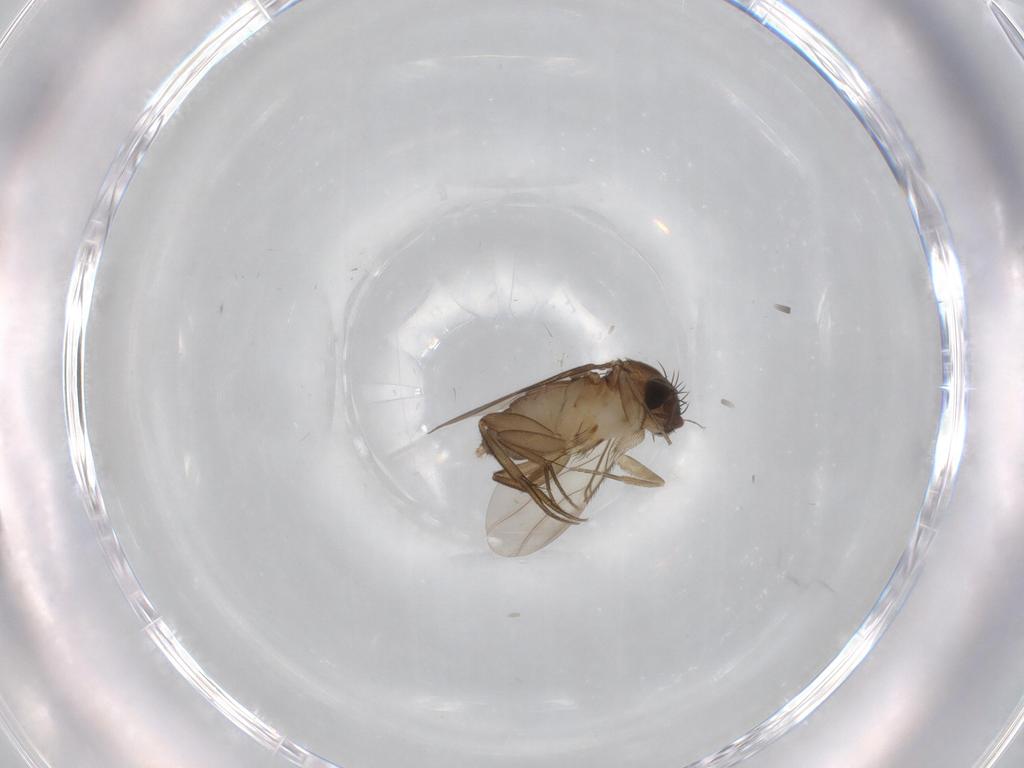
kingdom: Animalia
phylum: Arthropoda
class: Insecta
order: Diptera
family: Phoridae
